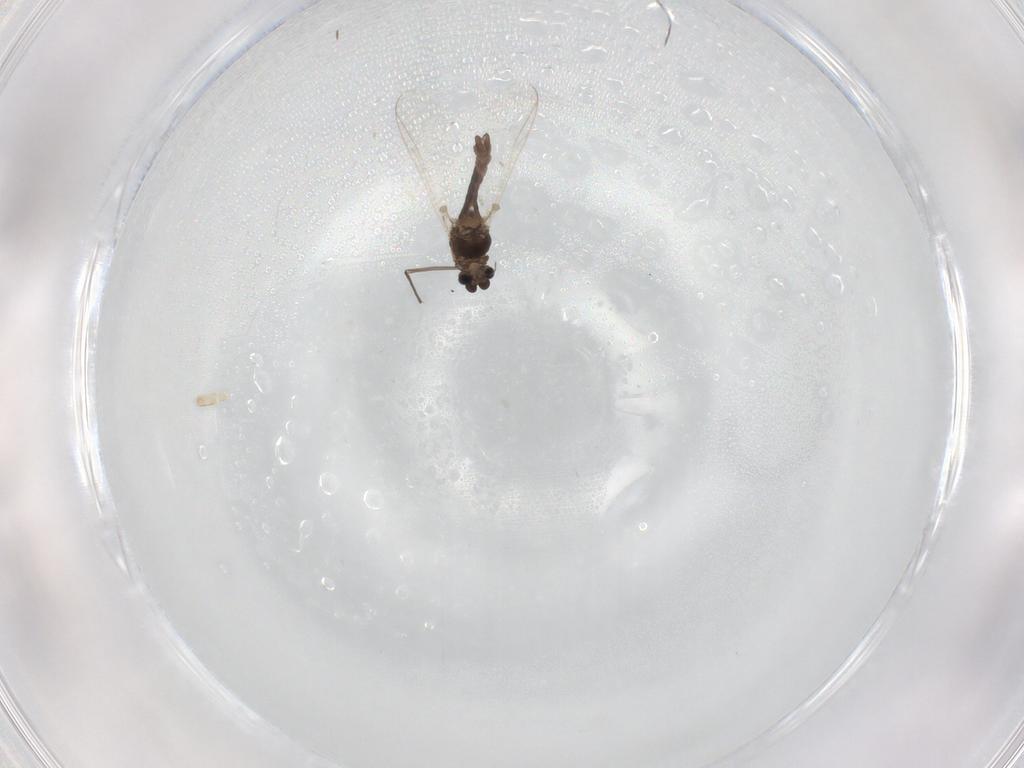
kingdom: Animalia
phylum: Arthropoda
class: Insecta
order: Diptera
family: Chironomidae
